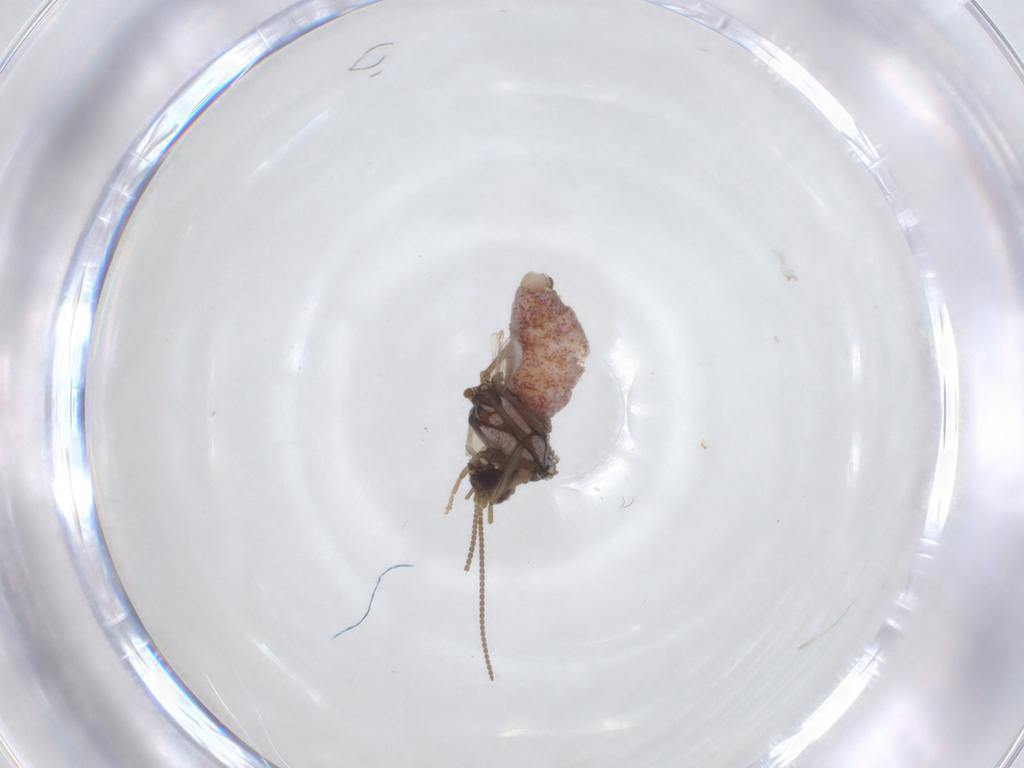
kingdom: Animalia
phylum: Arthropoda
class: Insecta
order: Neuroptera
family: Coniopterygidae
